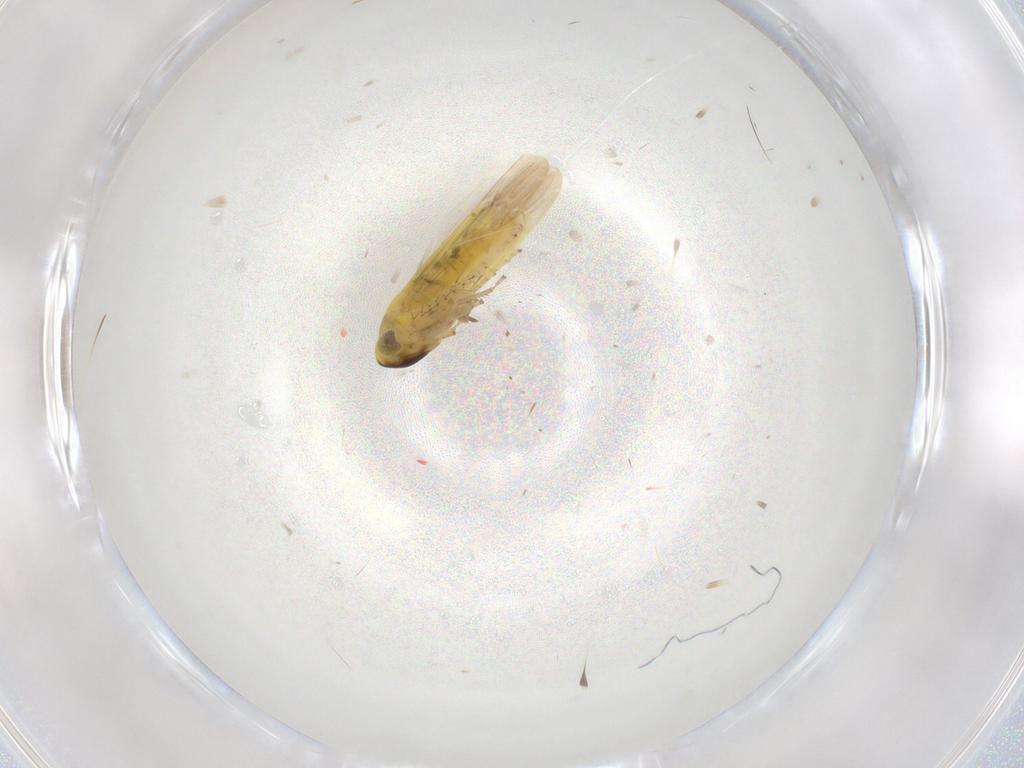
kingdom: Animalia
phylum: Arthropoda
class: Insecta
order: Hemiptera
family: Cicadellidae
